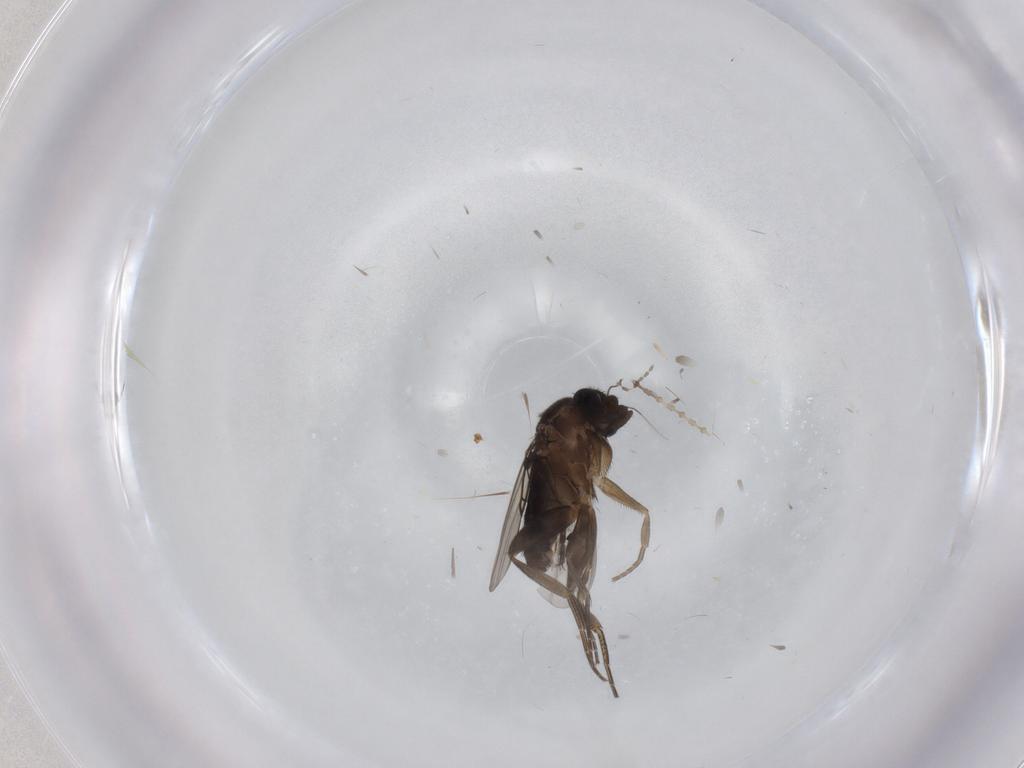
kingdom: Animalia
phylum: Arthropoda
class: Insecta
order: Diptera
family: Phoridae
